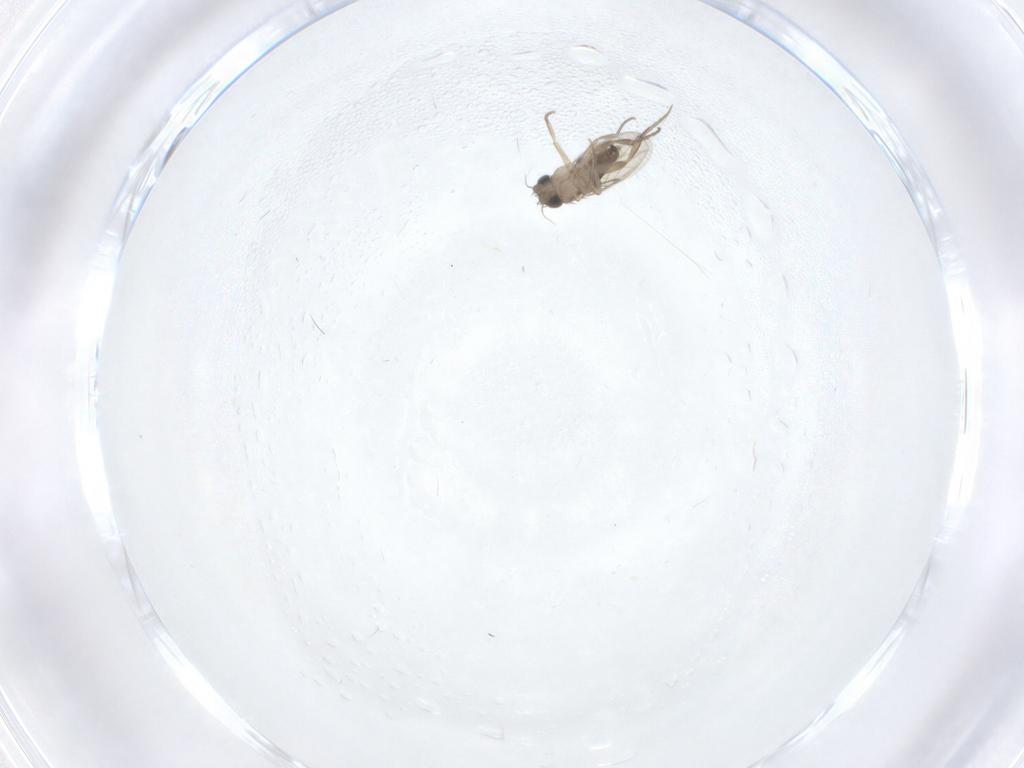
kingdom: Animalia
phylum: Arthropoda
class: Insecta
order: Diptera
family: Phoridae
